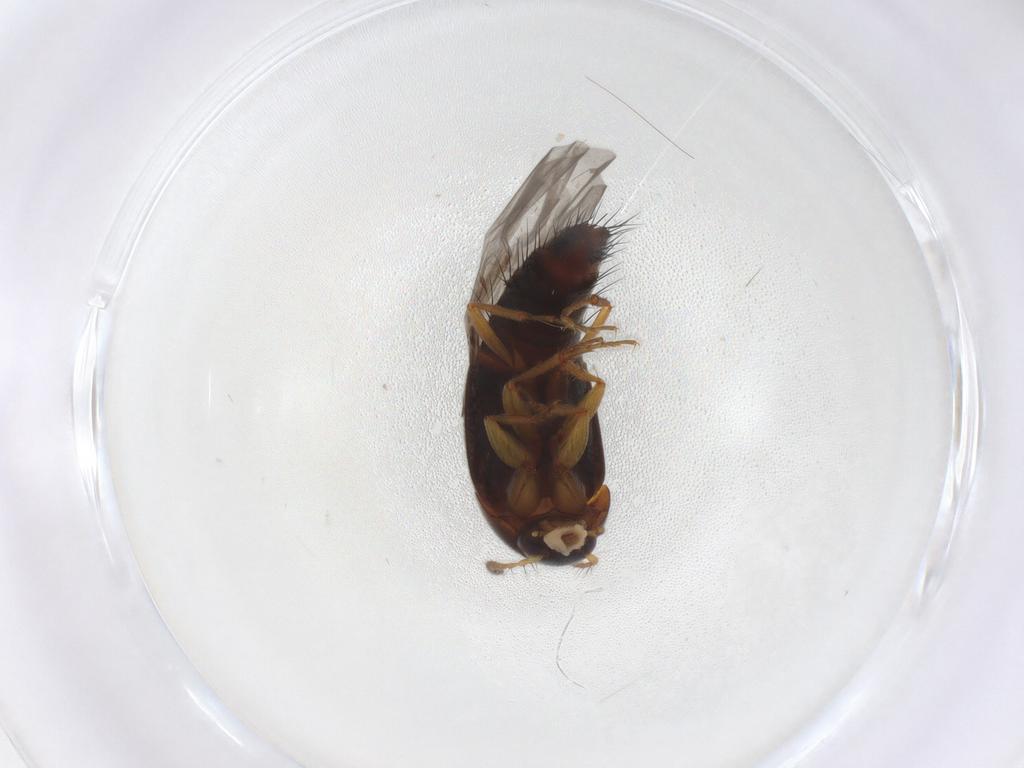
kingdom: Animalia
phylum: Arthropoda
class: Insecta
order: Coleoptera
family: Staphylinidae
